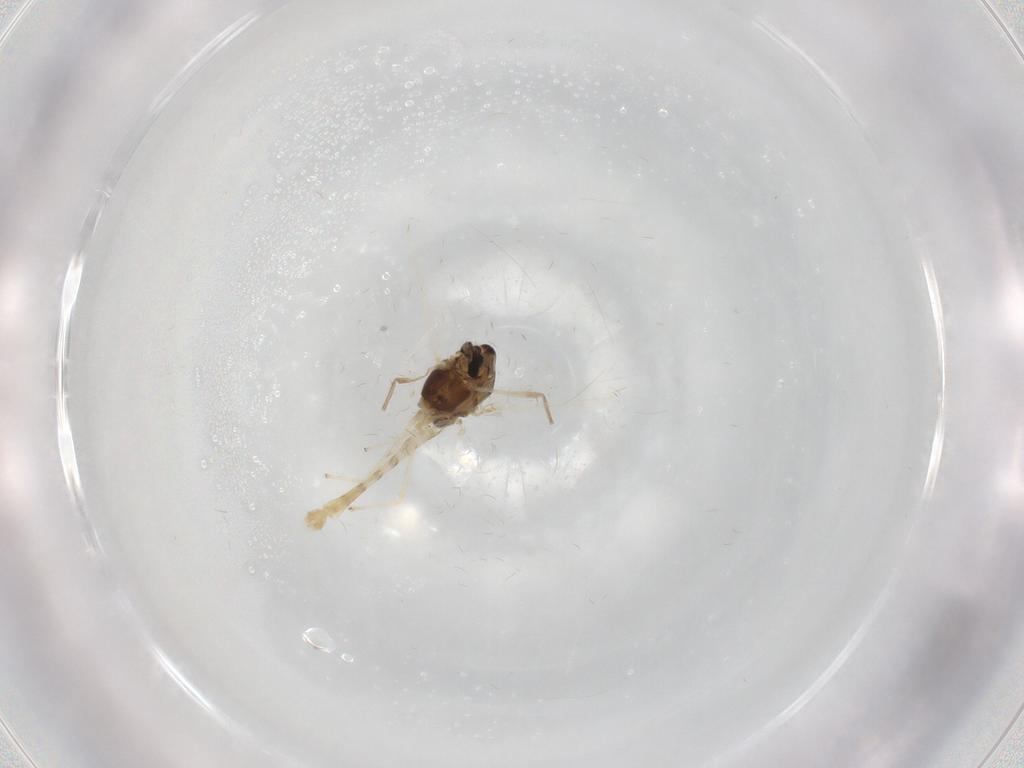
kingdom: Animalia
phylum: Arthropoda
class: Insecta
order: Diptera
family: Chironomidae
